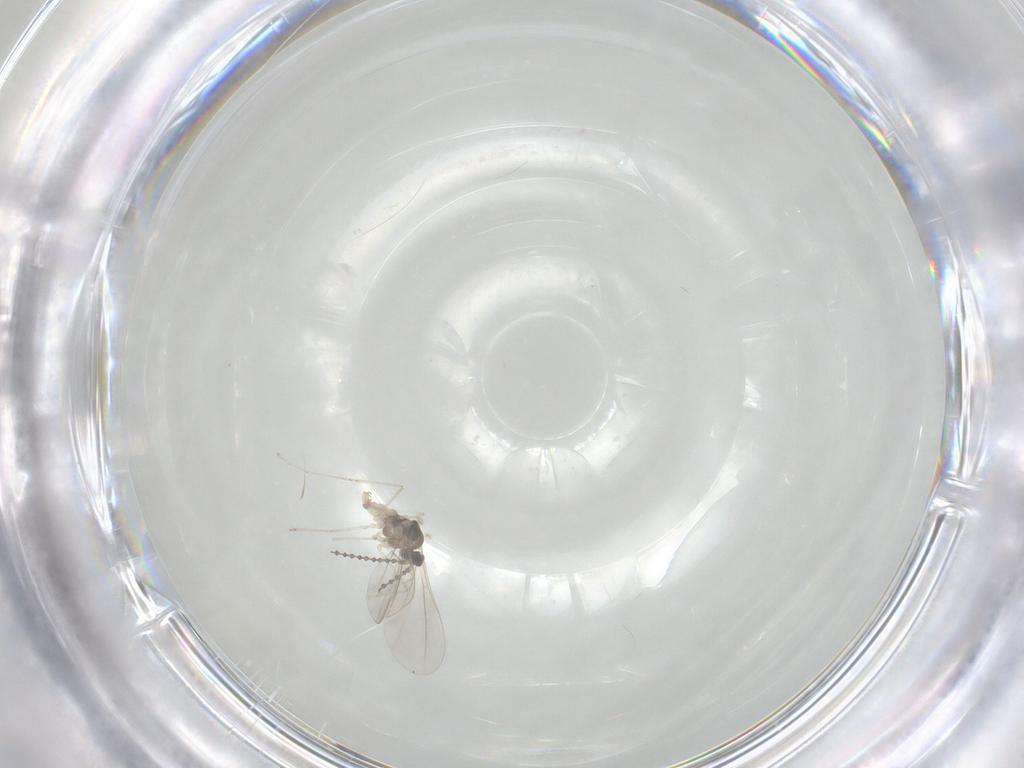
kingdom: Animalia
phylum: Arthropoda
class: Insecta
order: Diptera
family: Cecidomyiidae
